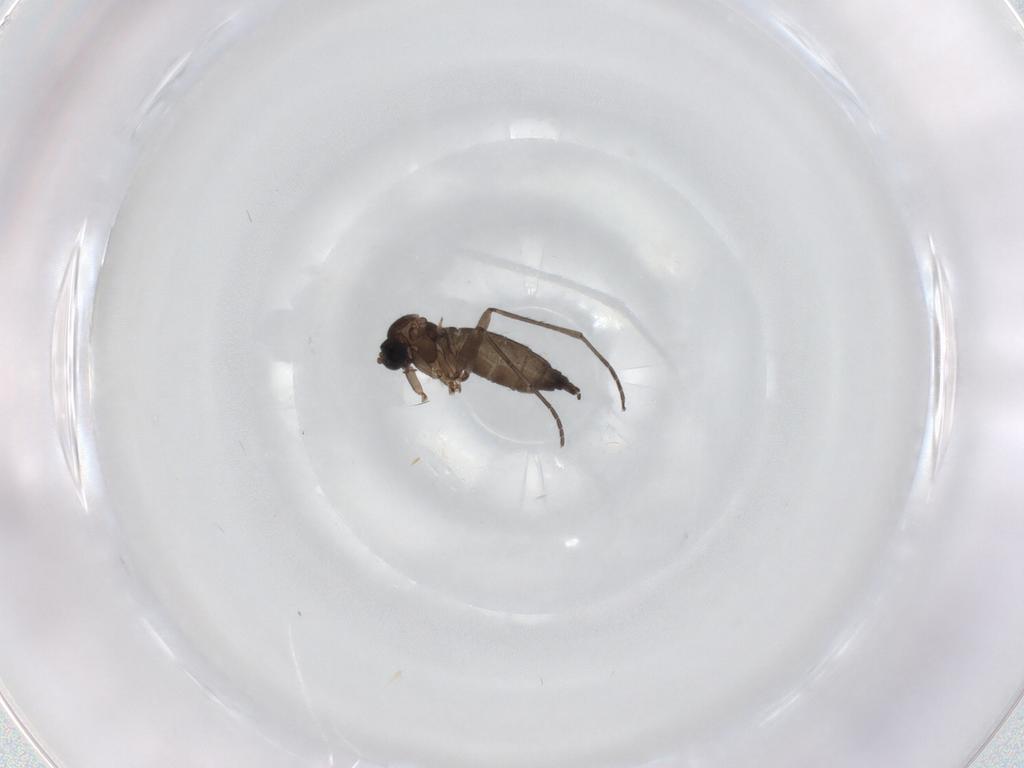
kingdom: Animalia
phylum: Arthropoda
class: Insecta
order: Diptera
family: Sciaridae
